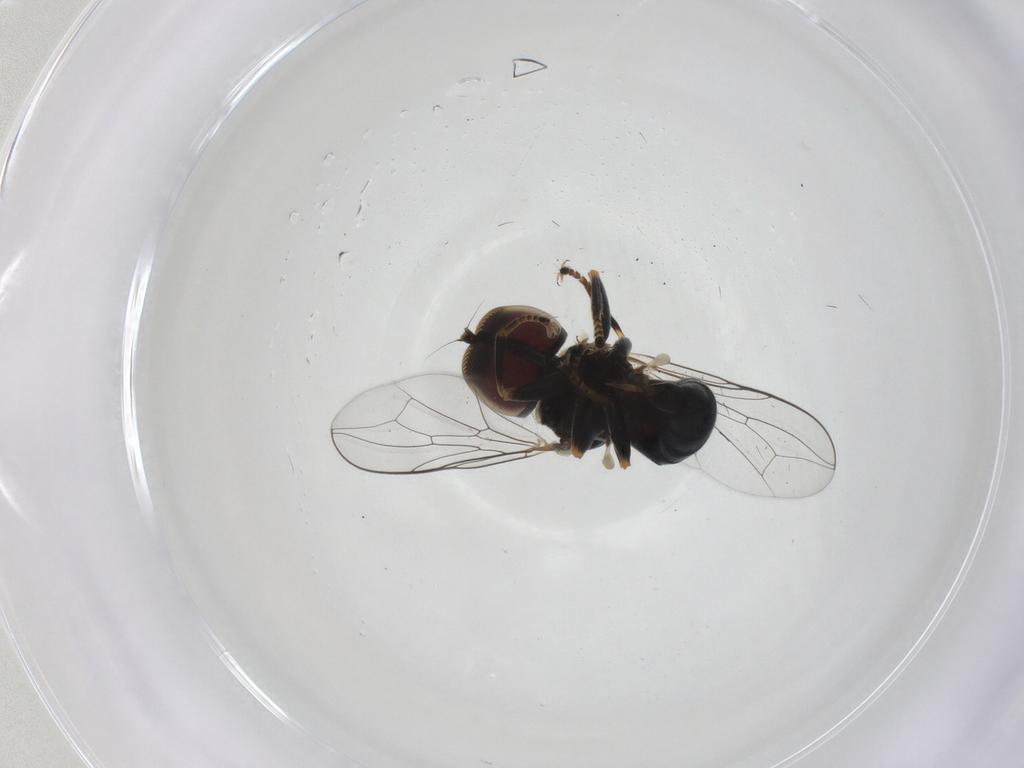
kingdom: Animalia
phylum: Arthropoda
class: Insecta
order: Diptera
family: Pipunculidae
